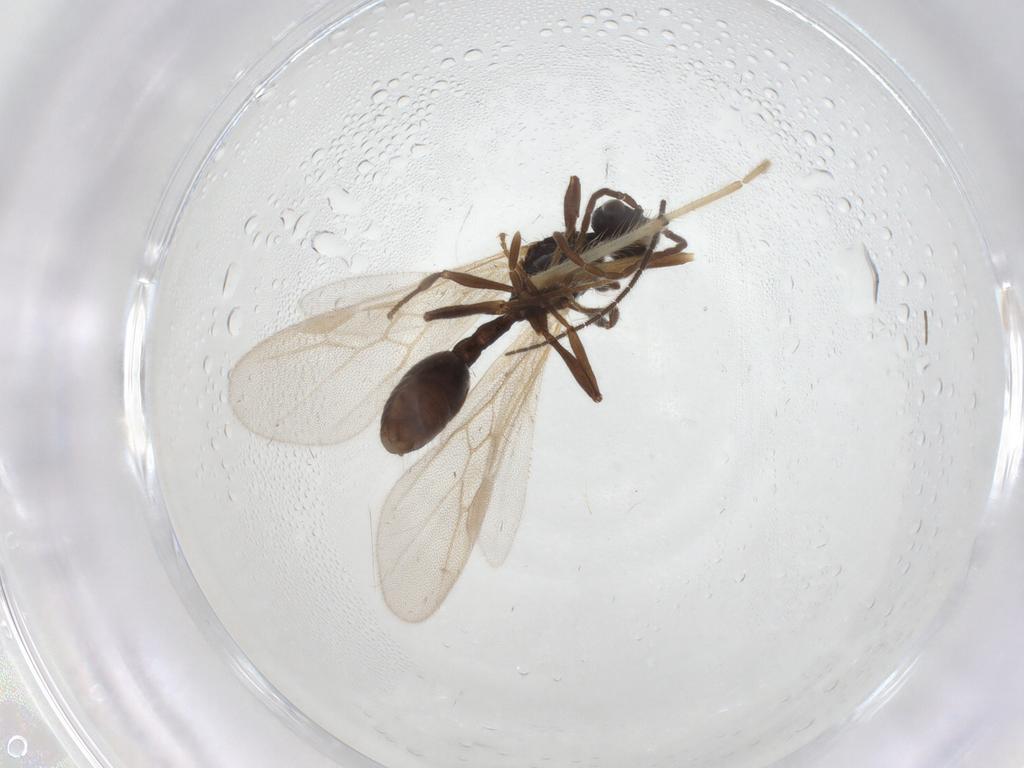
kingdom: Animalia
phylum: Arthropoda
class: Insecta
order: Hymenoptera
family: Formicidae
